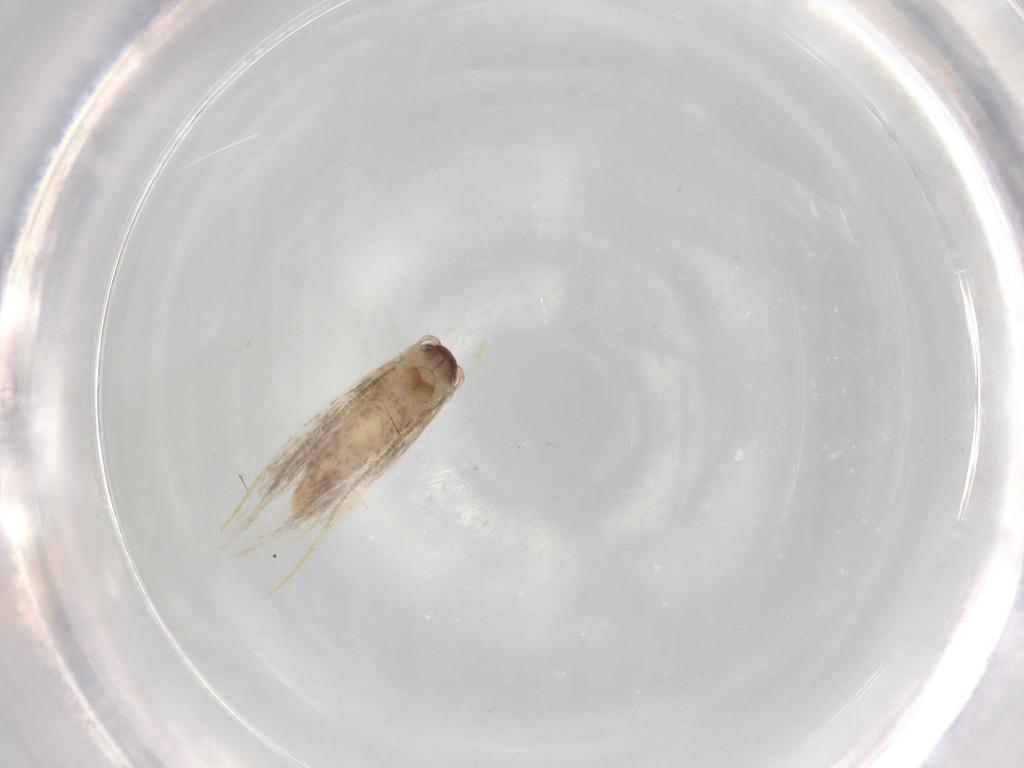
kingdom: Animalia
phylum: Arthropoda
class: Insecta
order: Lepidoptera
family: Tineidae
